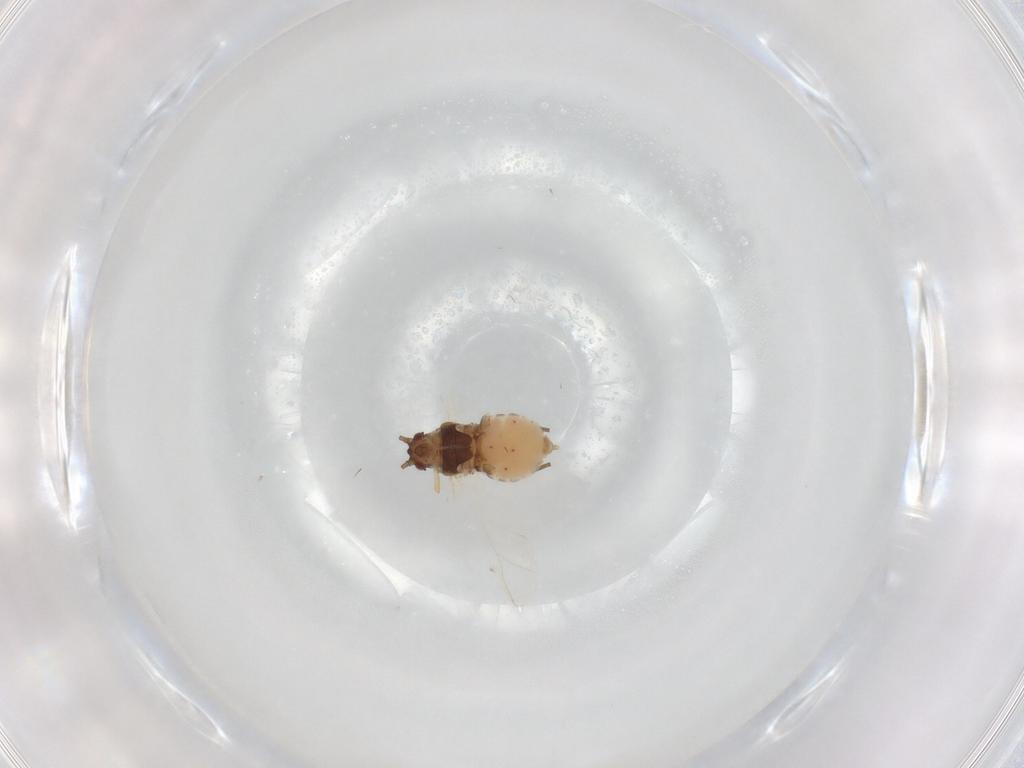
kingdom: Animalia
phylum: Arthropoda
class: Insecta
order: Hemiptera
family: Aphididae
